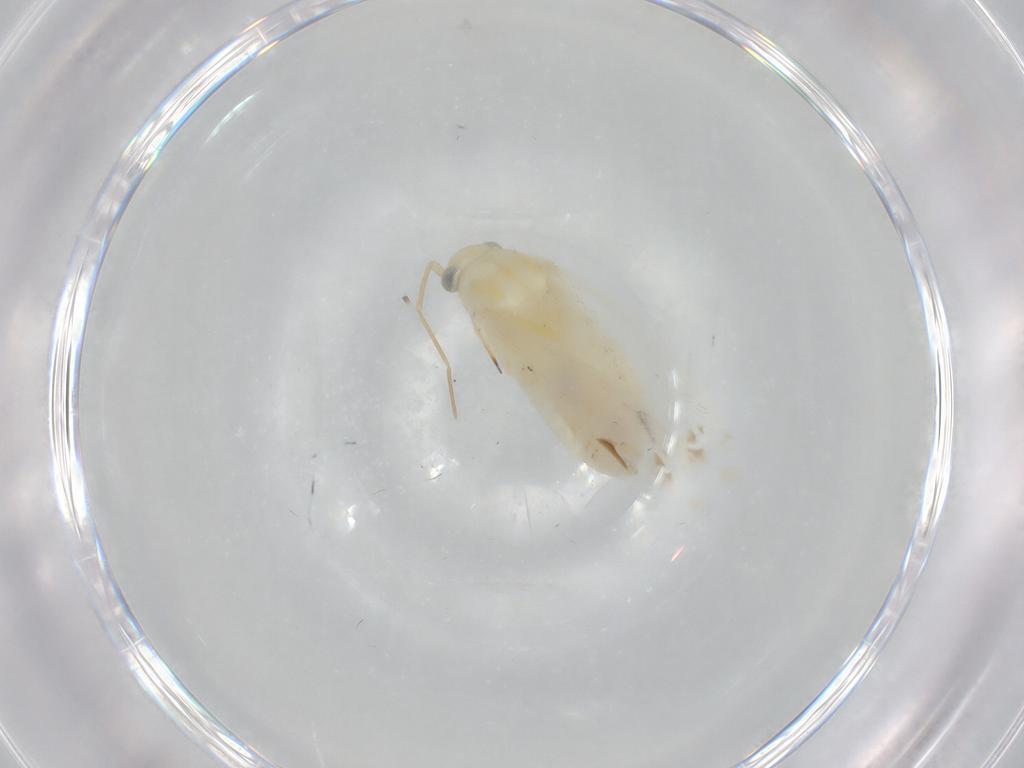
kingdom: Animalia
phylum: Arthropoda
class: Insecta
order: Hemiptera
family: Miridae
